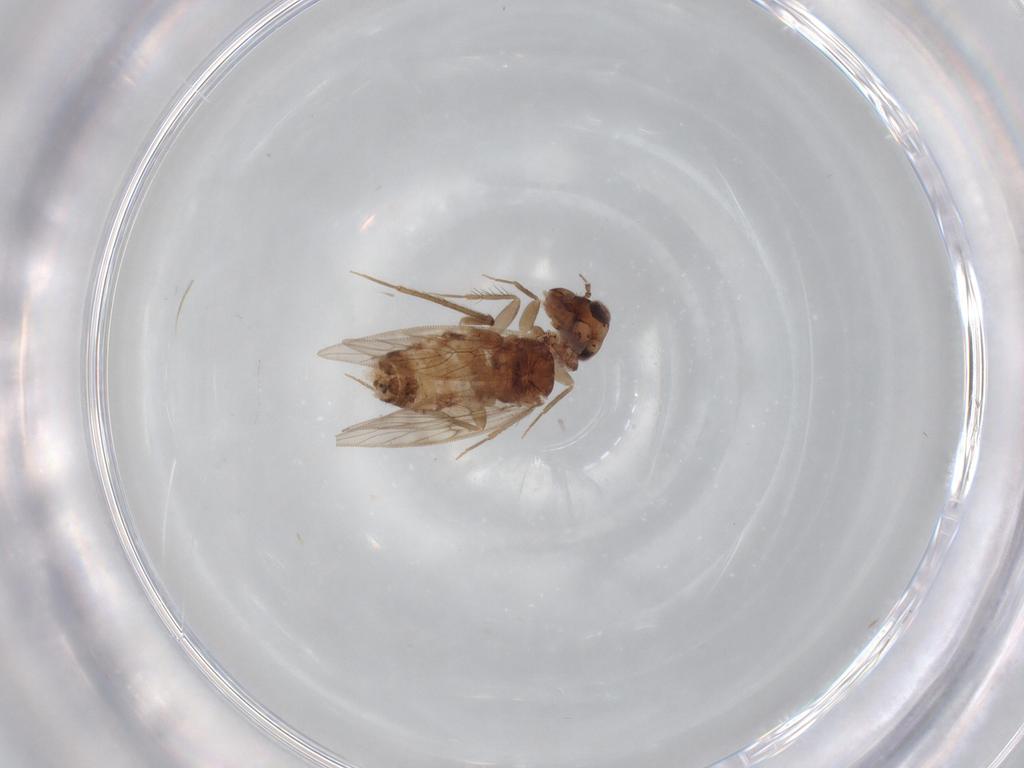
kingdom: Animalia
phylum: Arthropoda
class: Insecta
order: Psocodea
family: Lepidopsocidae
